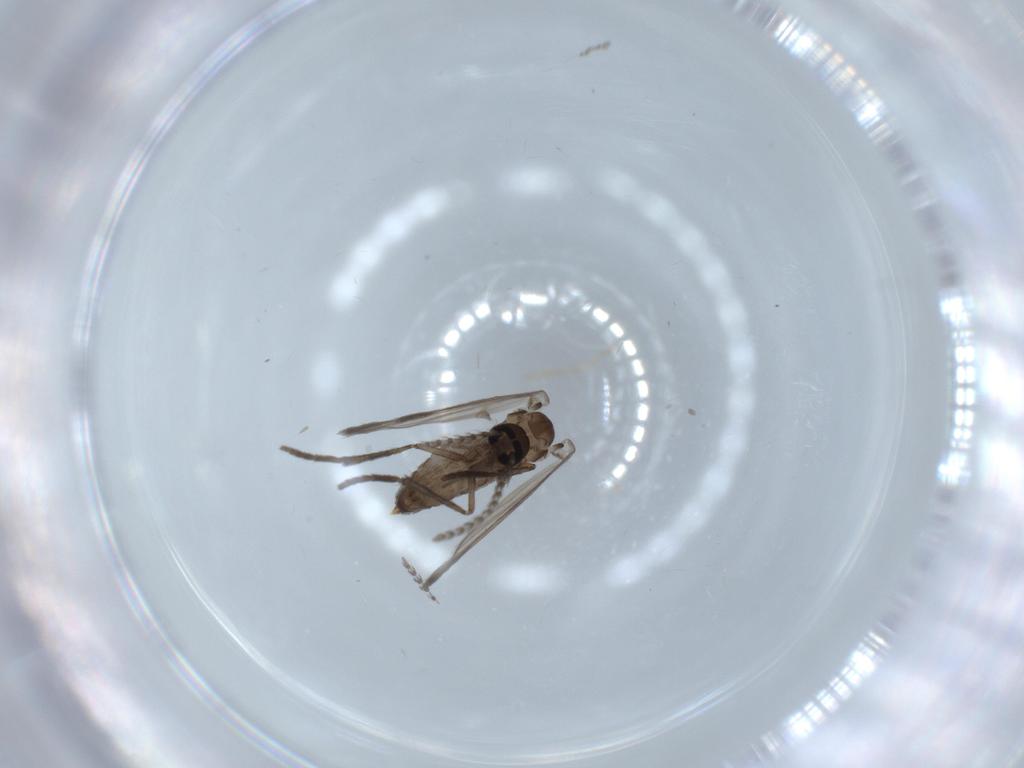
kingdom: Animalia
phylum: Arthropoda
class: Insecta
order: Diptera
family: Psychodidae
